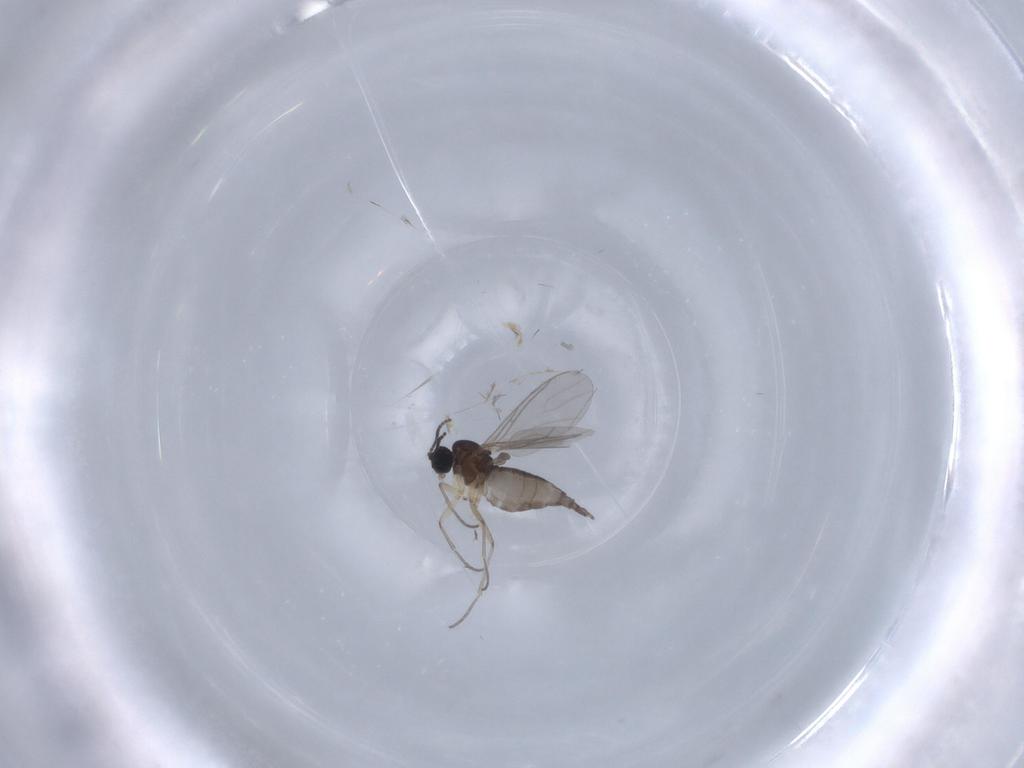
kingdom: Animalia
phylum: Arthropoda
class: Insecta
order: Diptera
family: Sciaridae
